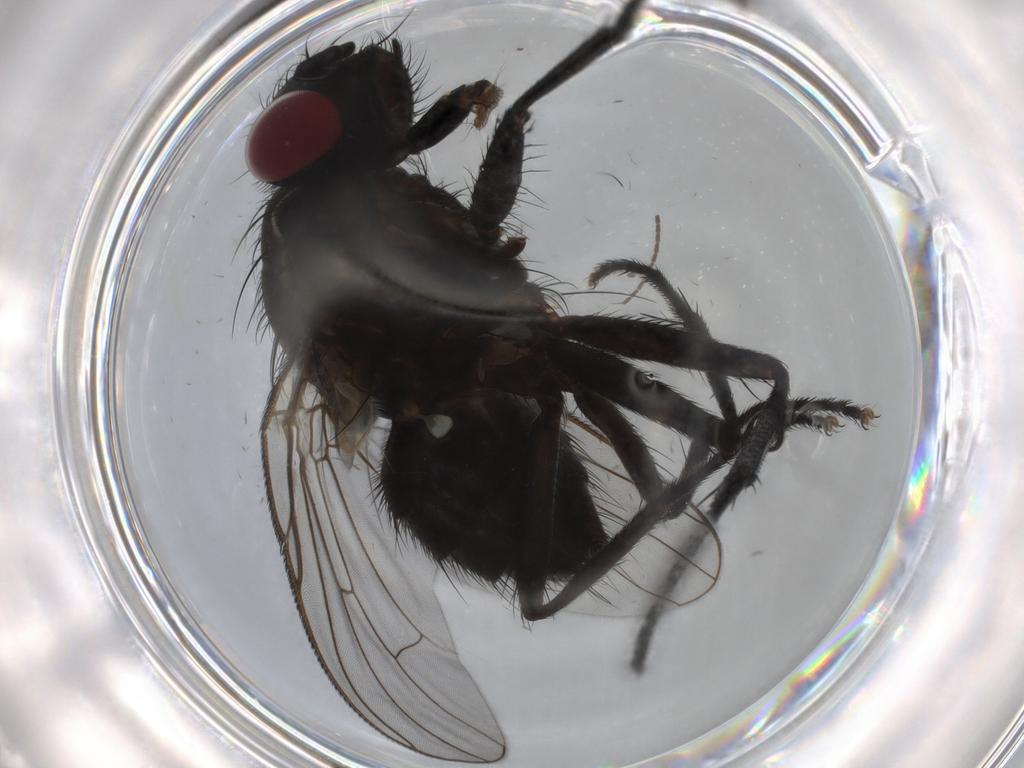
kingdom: Animalia
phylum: Arthropoda
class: Insecta
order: Diptera
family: Muscidae
